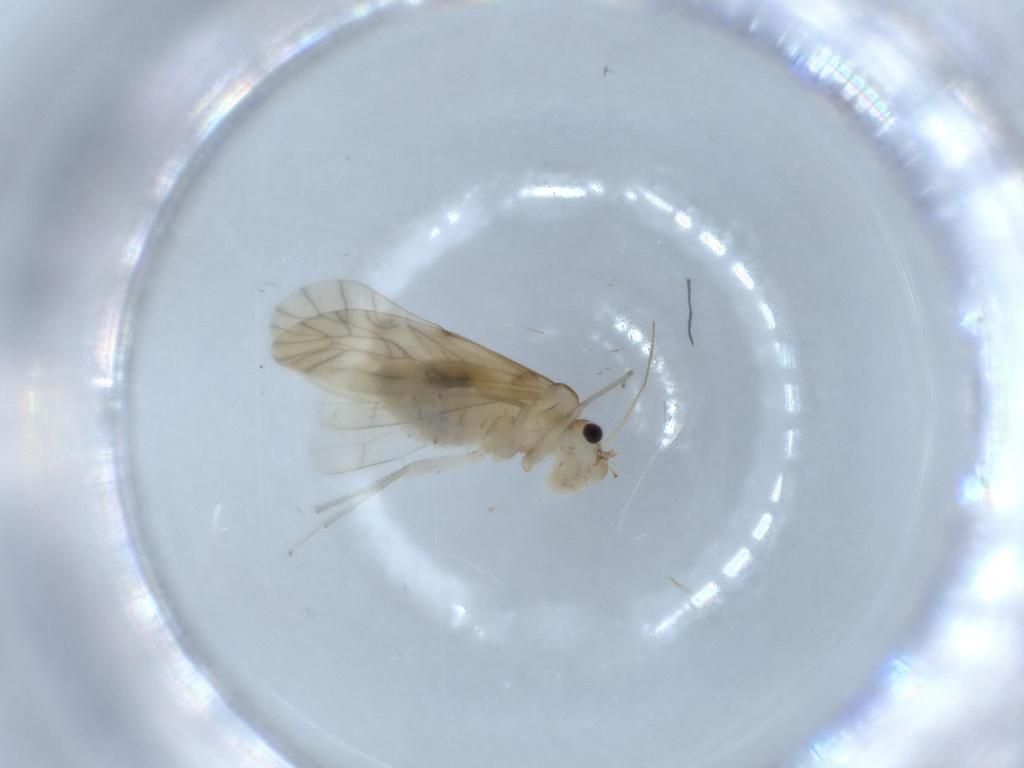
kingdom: Animalia
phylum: Arthropoda
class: Insecta
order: Psocodea
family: Caeciliusidae
